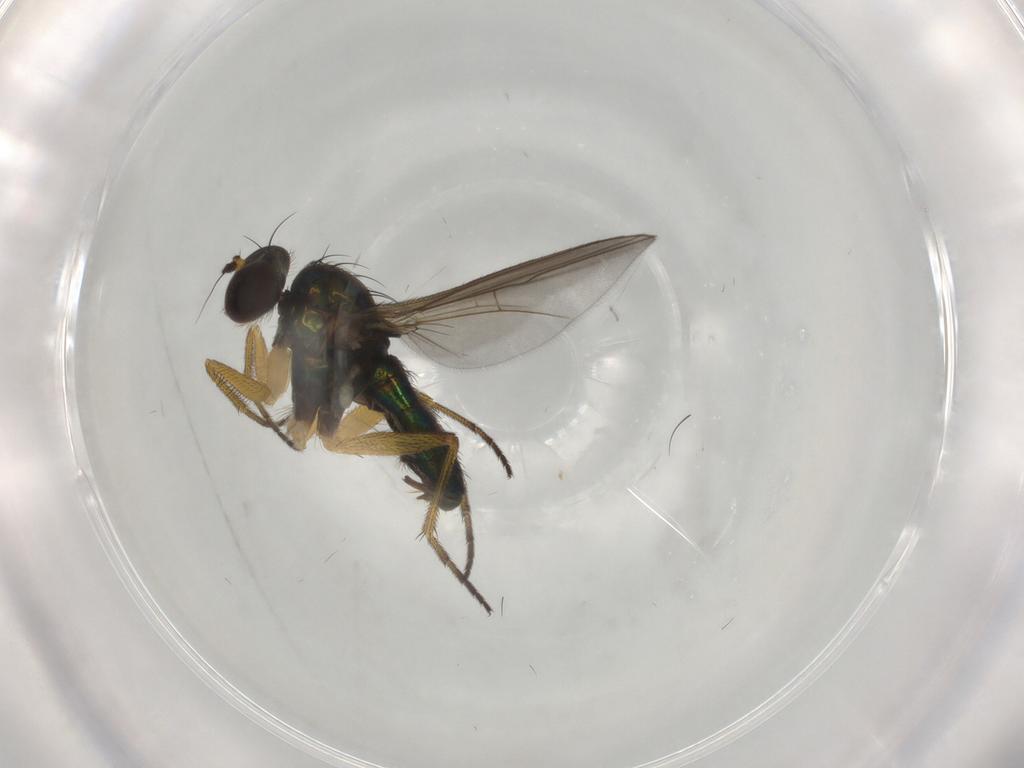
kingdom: Animalia
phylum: Arthropoda
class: Insecta
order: Diptera
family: Dolichopodidae
